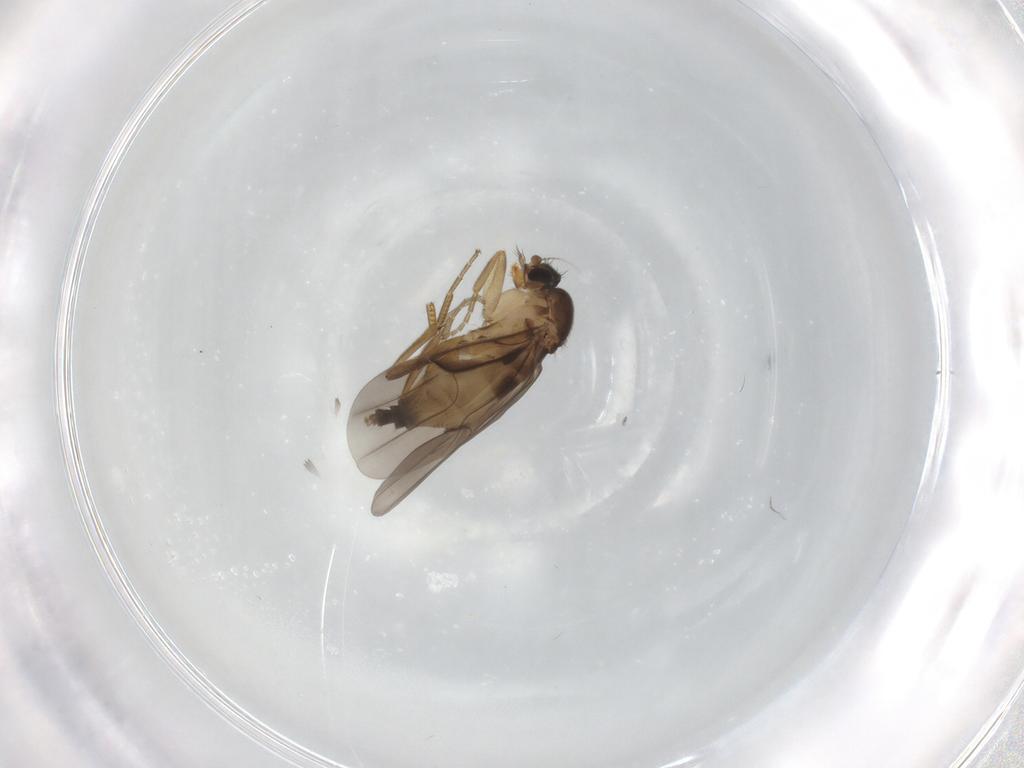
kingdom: Animalia
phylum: Arthropoda
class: Insecta
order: Diptera
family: Phoridae
